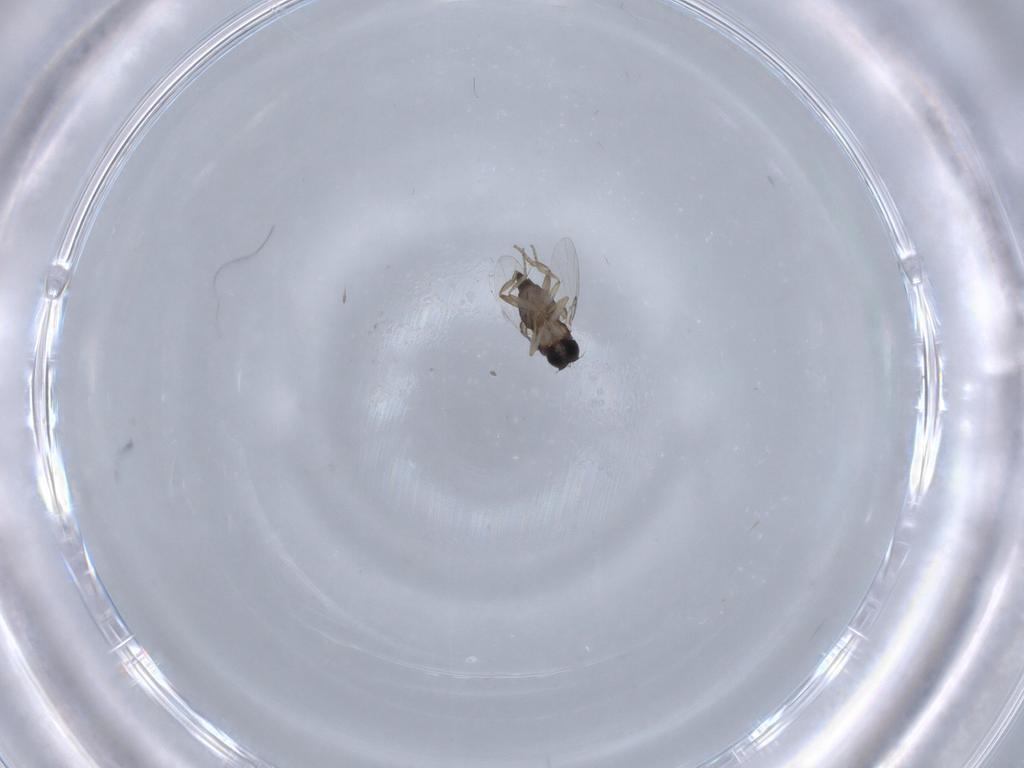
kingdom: Animalia
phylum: Arthropoda
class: Insecta
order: Diptera
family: Phoridae
